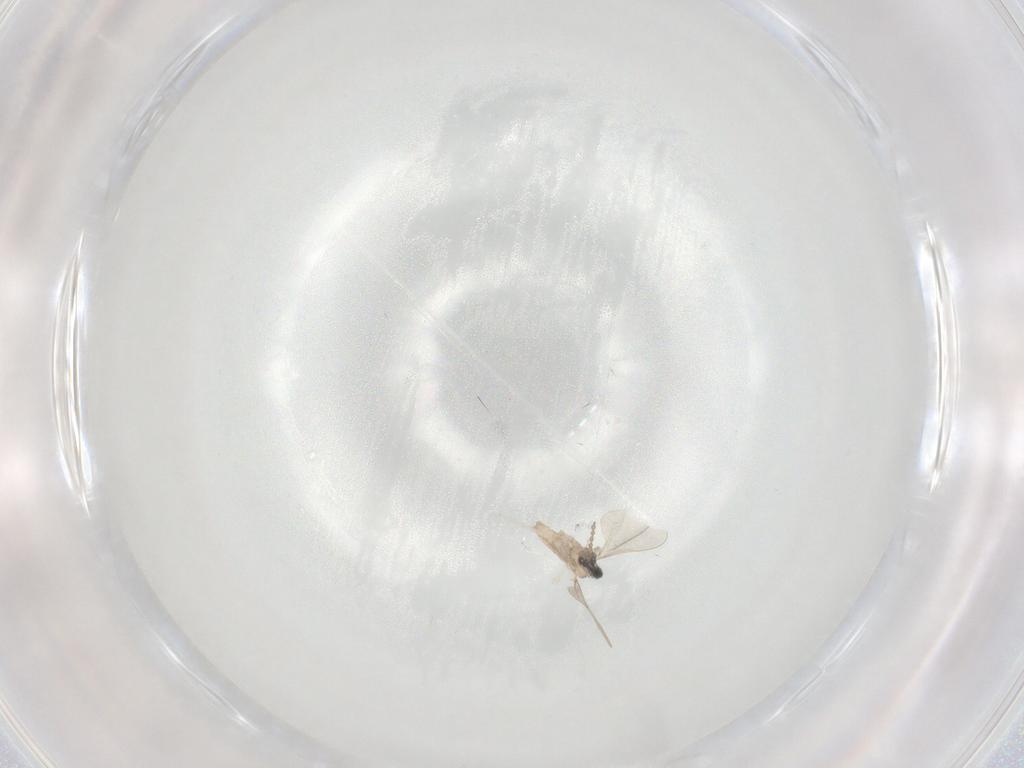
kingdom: Animalia
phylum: Arthropoda
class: Insecta
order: Diptera
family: Cecidomyiidae
